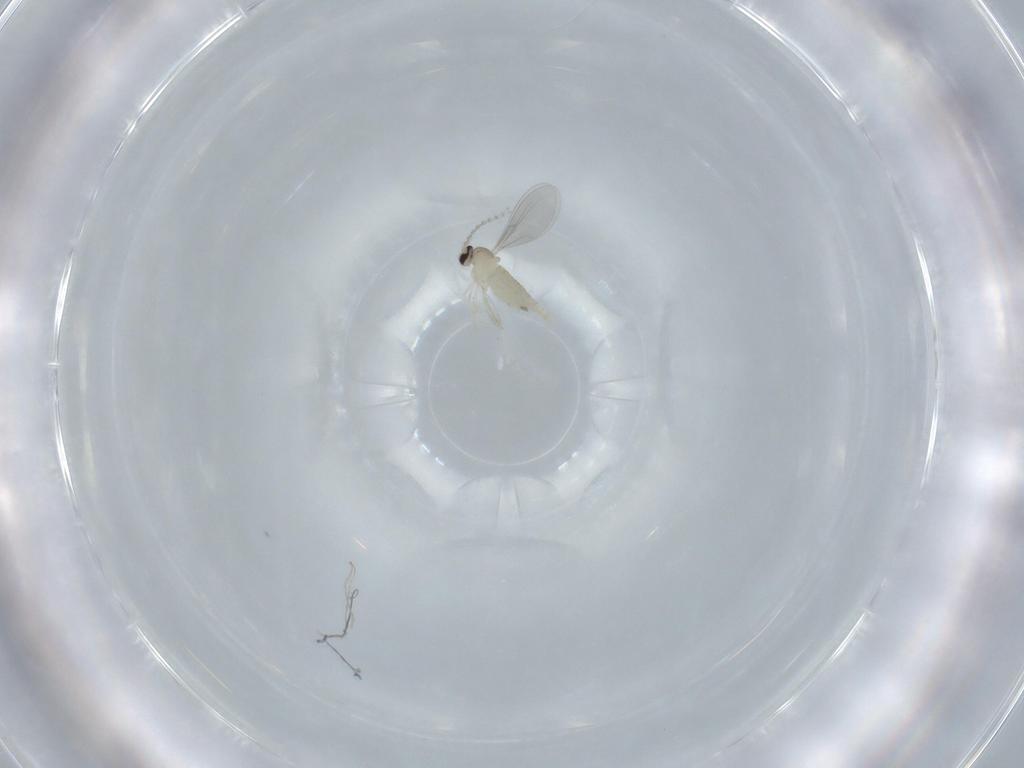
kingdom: Animalia
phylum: Arthropoda
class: Insecta
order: Diptera
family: Cecidomyiidae
